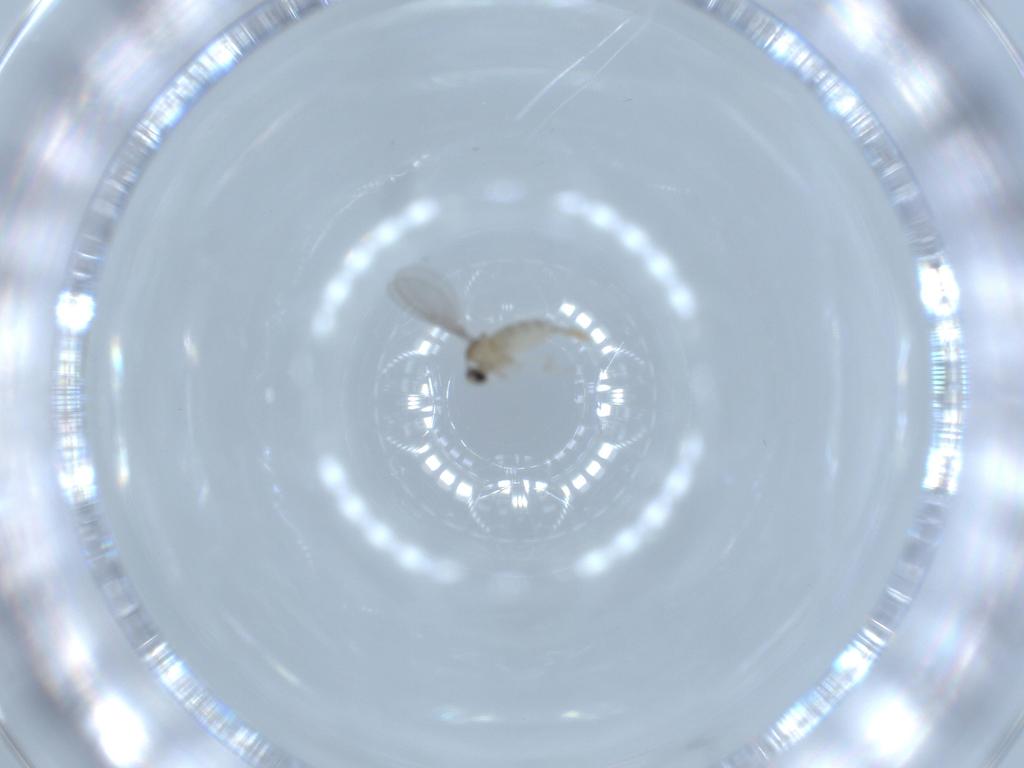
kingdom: Animalia
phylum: Arthropoda
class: Insecta
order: Diptera
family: Cecidomyiidae
